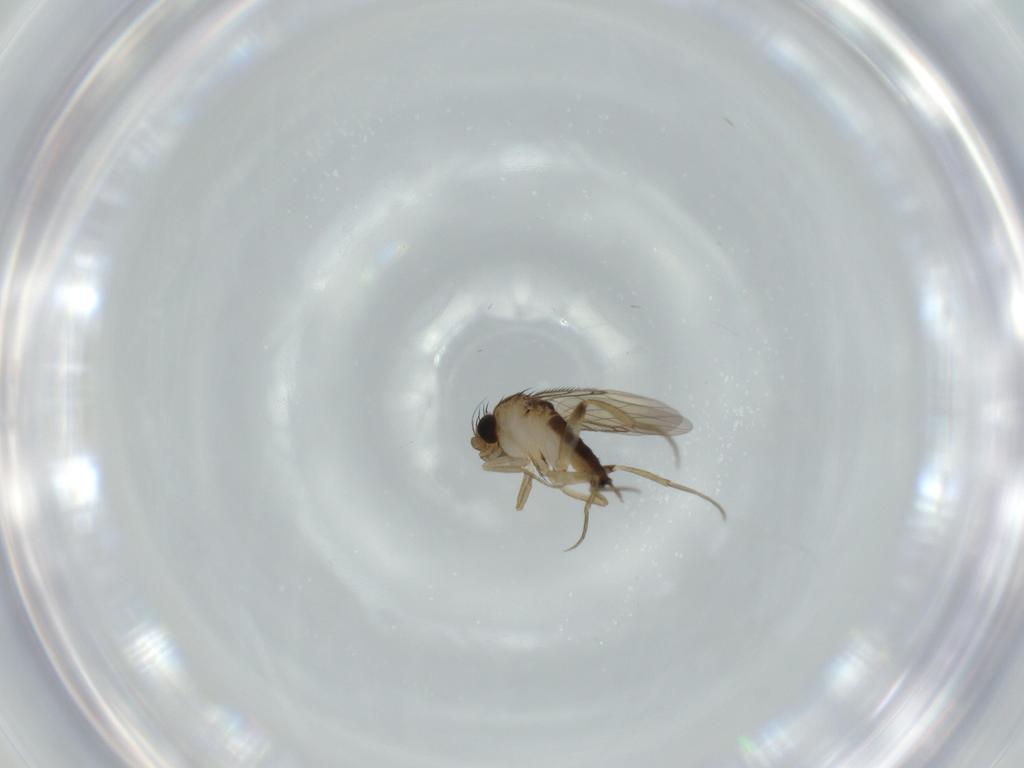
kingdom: Animalia
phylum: Arthropoda
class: Insecta
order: Diptera
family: Phoridae
